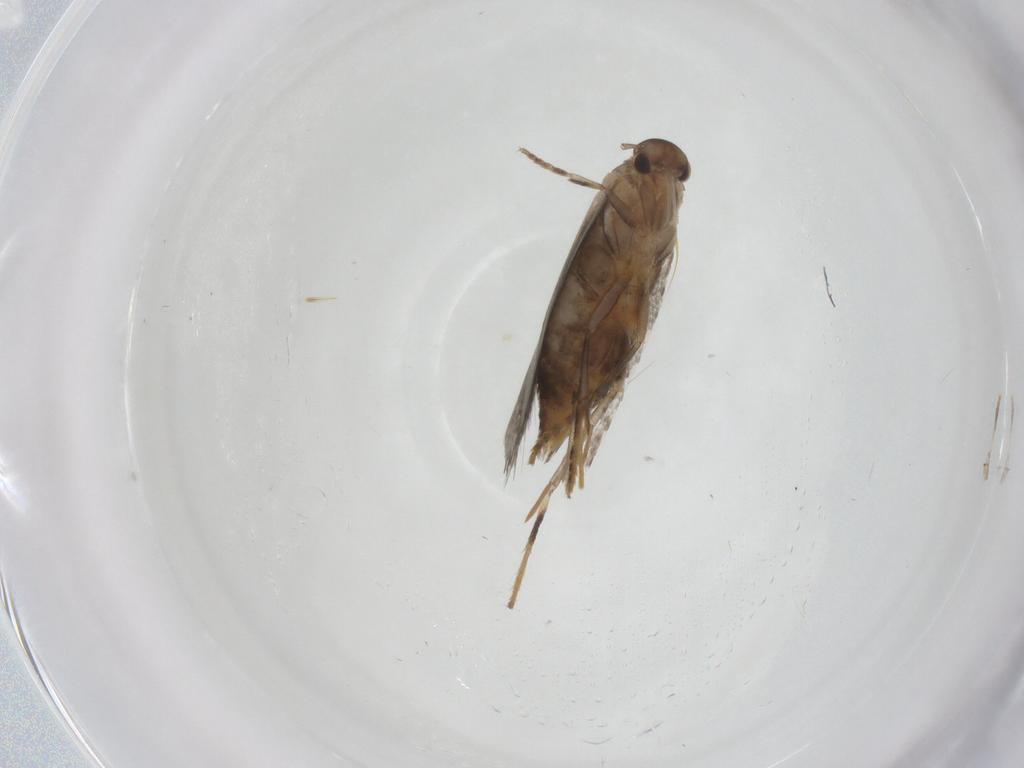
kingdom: Animalia
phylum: Arthropoda
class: Insecta
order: Lepidoptera
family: Elachistidae
